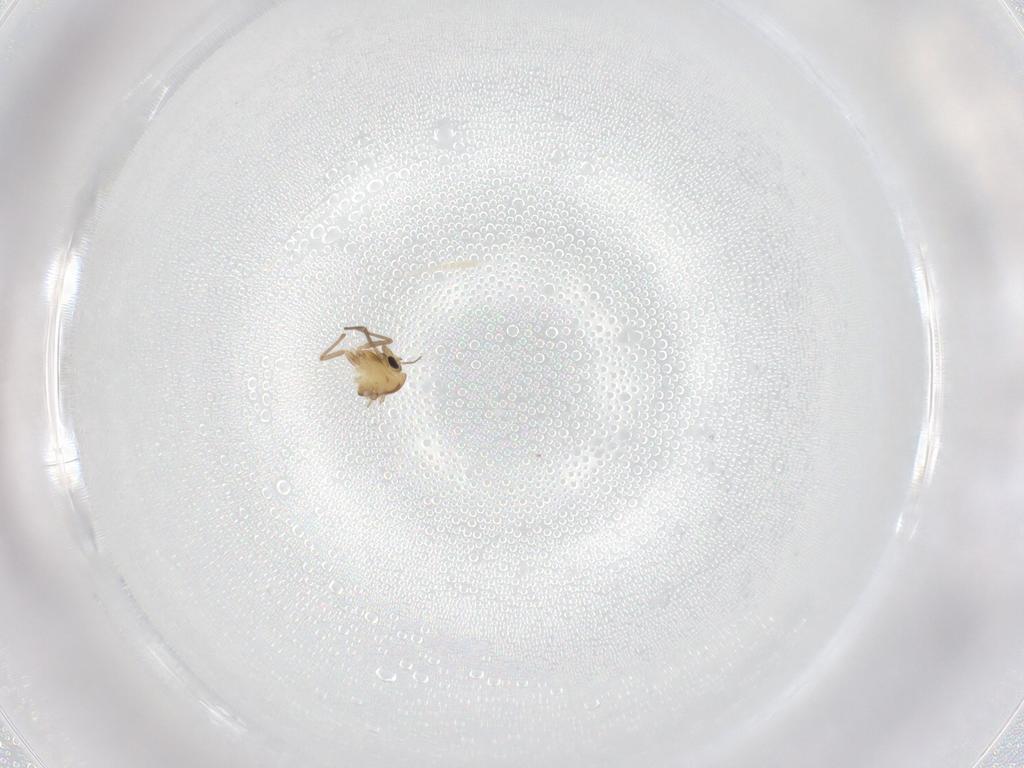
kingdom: Animalia
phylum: Arthropoda
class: Insecta
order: Diptera
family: Chironomidae
